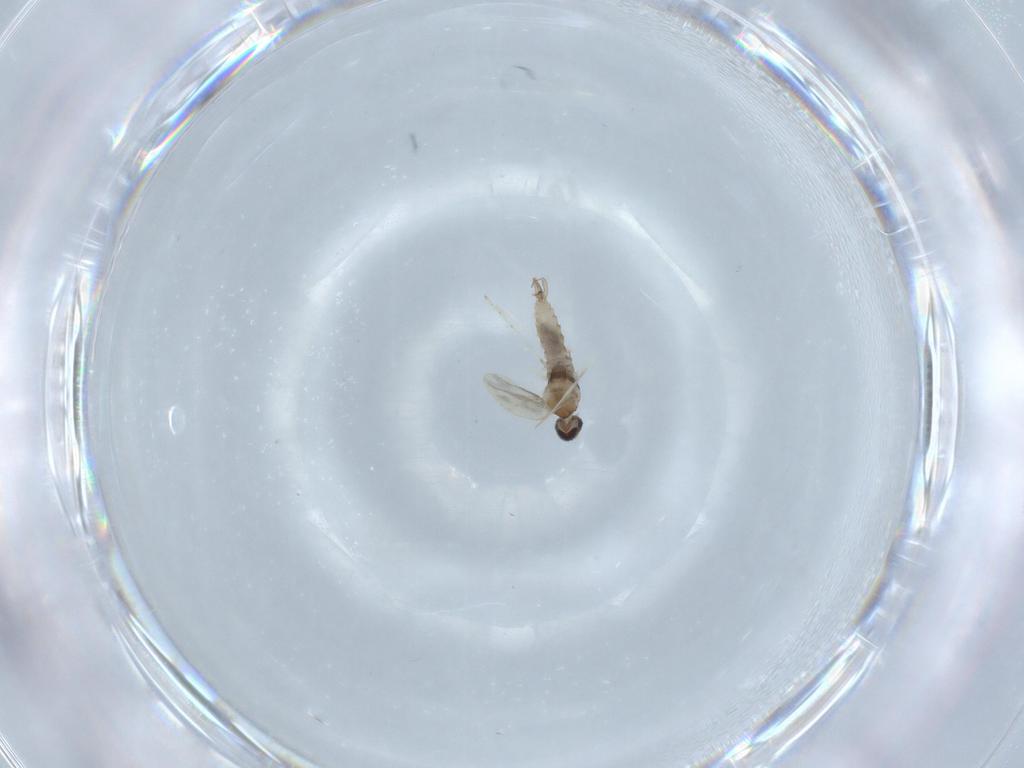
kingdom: Animalia
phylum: Arthropoda
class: Insecta
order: Diptera
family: Cecidomyiidae
